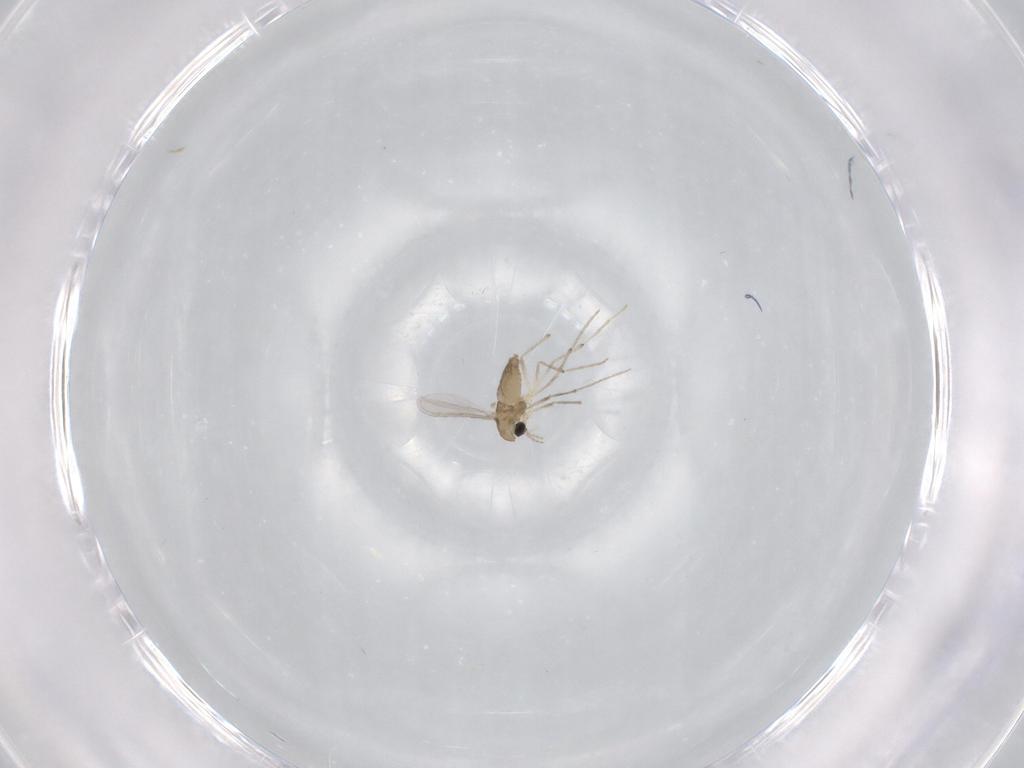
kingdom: Animalia
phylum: Arthropoda
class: Insecta
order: Diptera
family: Chironomidae
